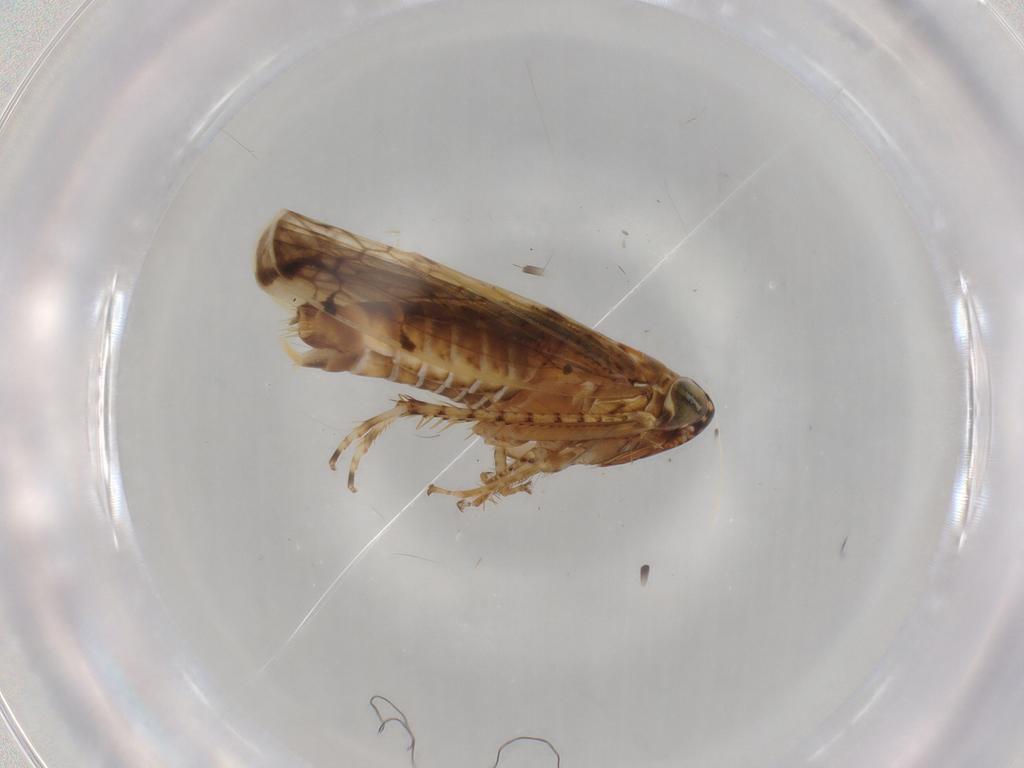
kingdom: Animalia
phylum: Arthropoda
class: Insecta
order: Hemiptera
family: Cicadellidae
